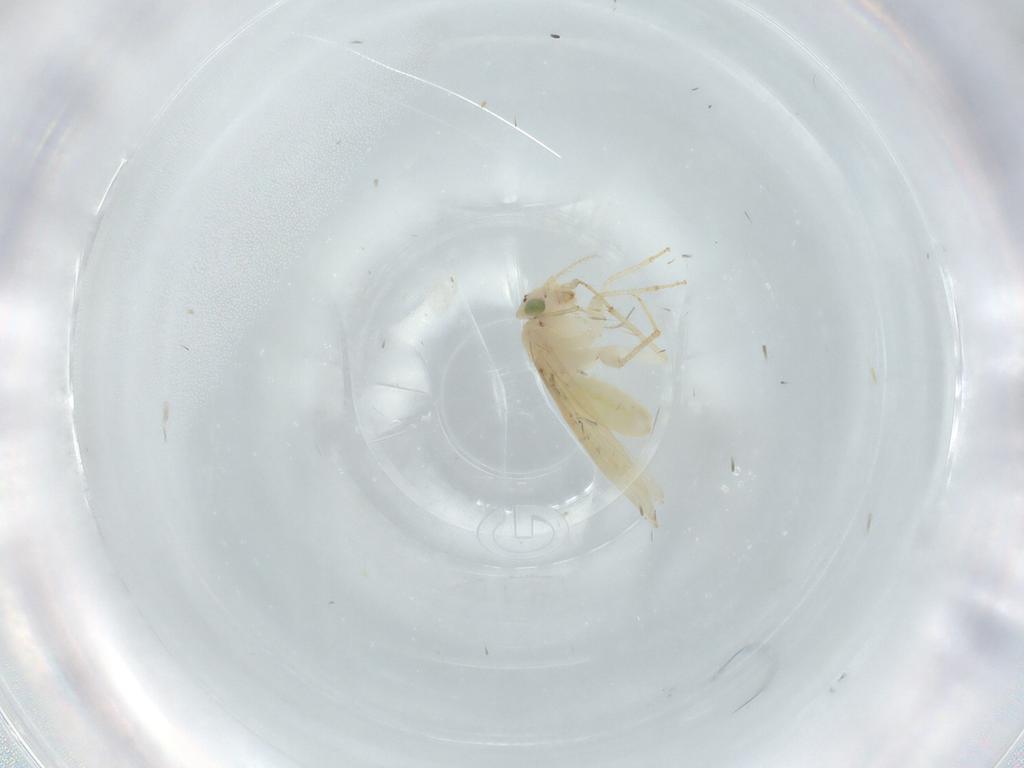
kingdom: Animalia
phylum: Arthropoda
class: Insecta
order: Psocodea
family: Lepidopsocidae
